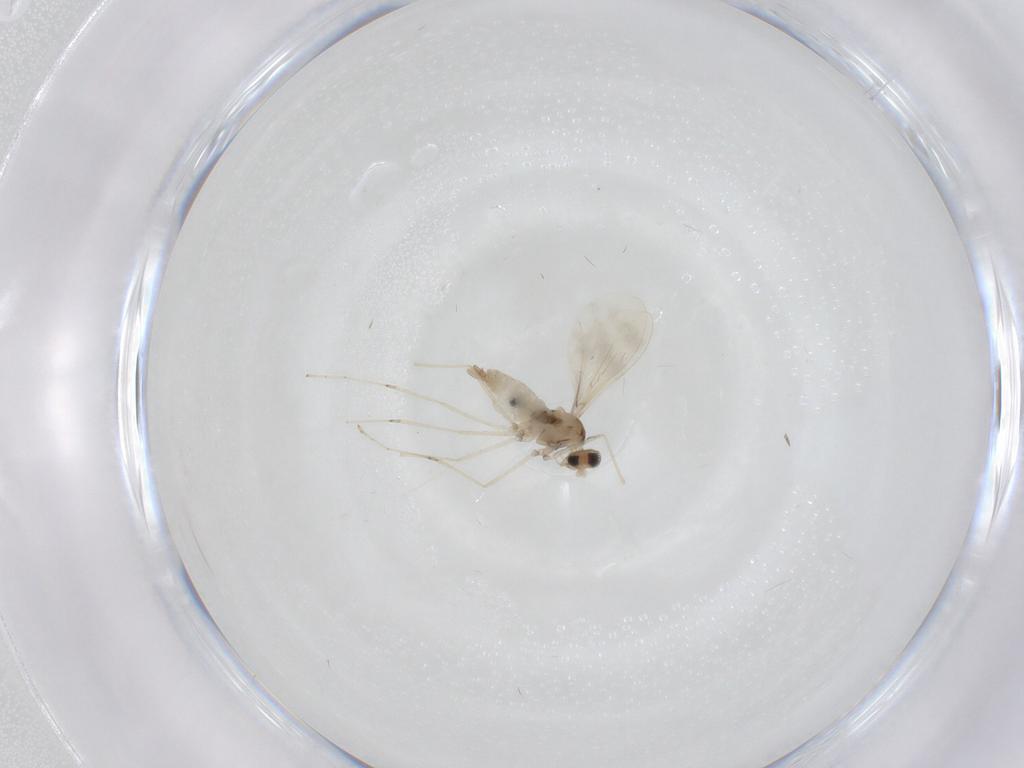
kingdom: Animalia
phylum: Arthropoda
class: Insecta
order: Diptera
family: Cecidomyiidae
